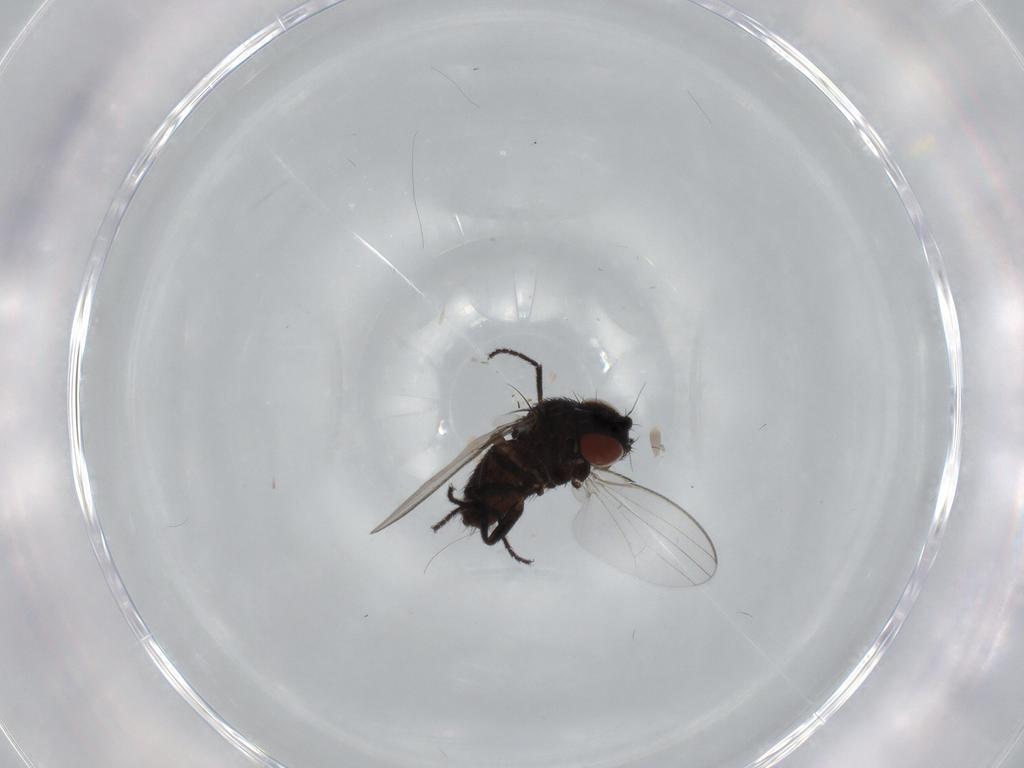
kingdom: Animalia
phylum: Arthropoda
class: Insecta
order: Diptera
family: Milichiidae
